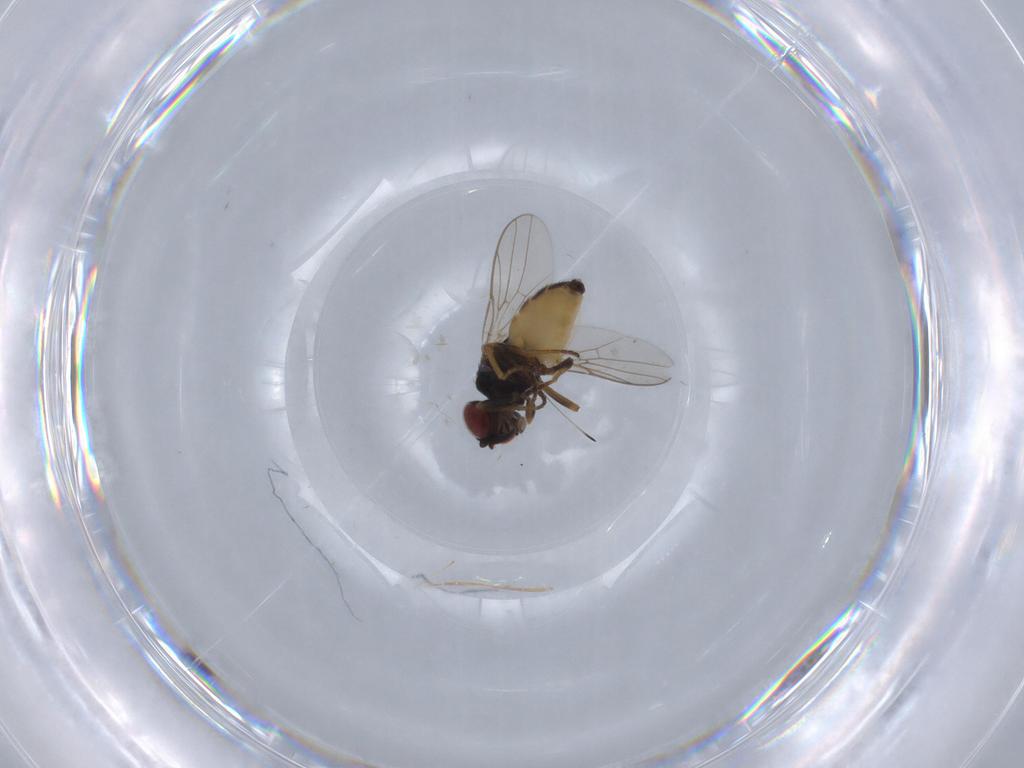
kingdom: Animalia
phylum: Arthropoda
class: Insecta
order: Diptera
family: Chloropidae
